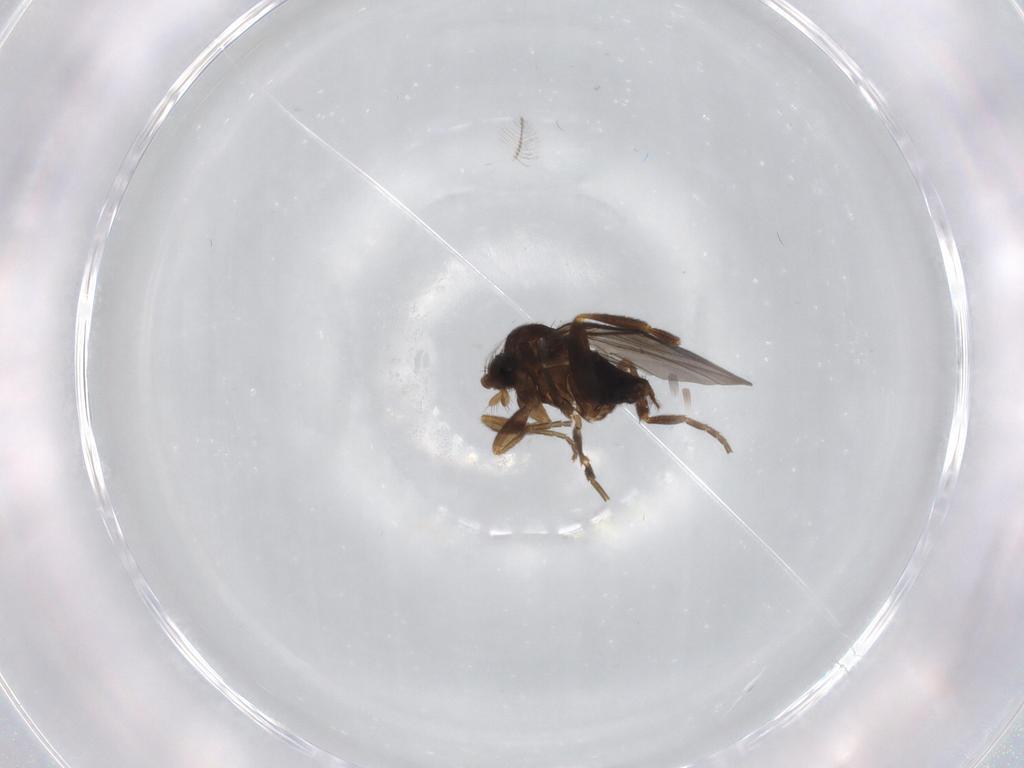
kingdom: Animalia
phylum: Arthropoda
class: Insecta
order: Diptera
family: Phoridae
